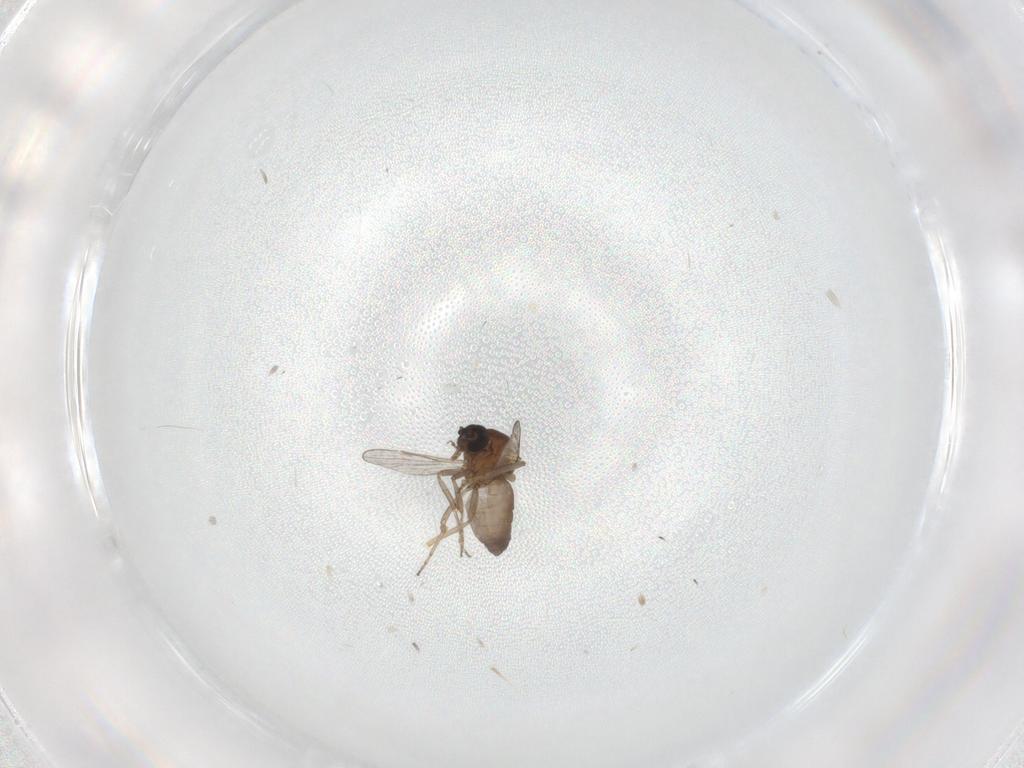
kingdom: Animalia
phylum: Arthropoda
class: Insecta
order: Diptera
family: Ceratopogonidae
